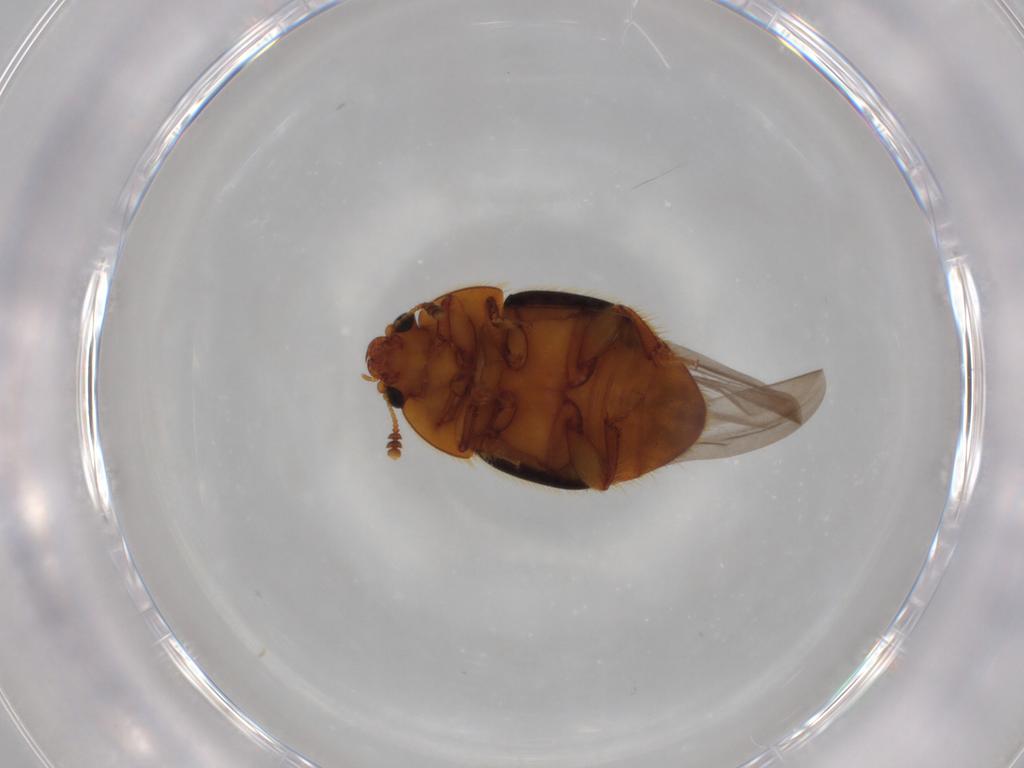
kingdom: Animalia
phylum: Arthropoda
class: Insecta
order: Coleoptera
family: Nitidulidae
